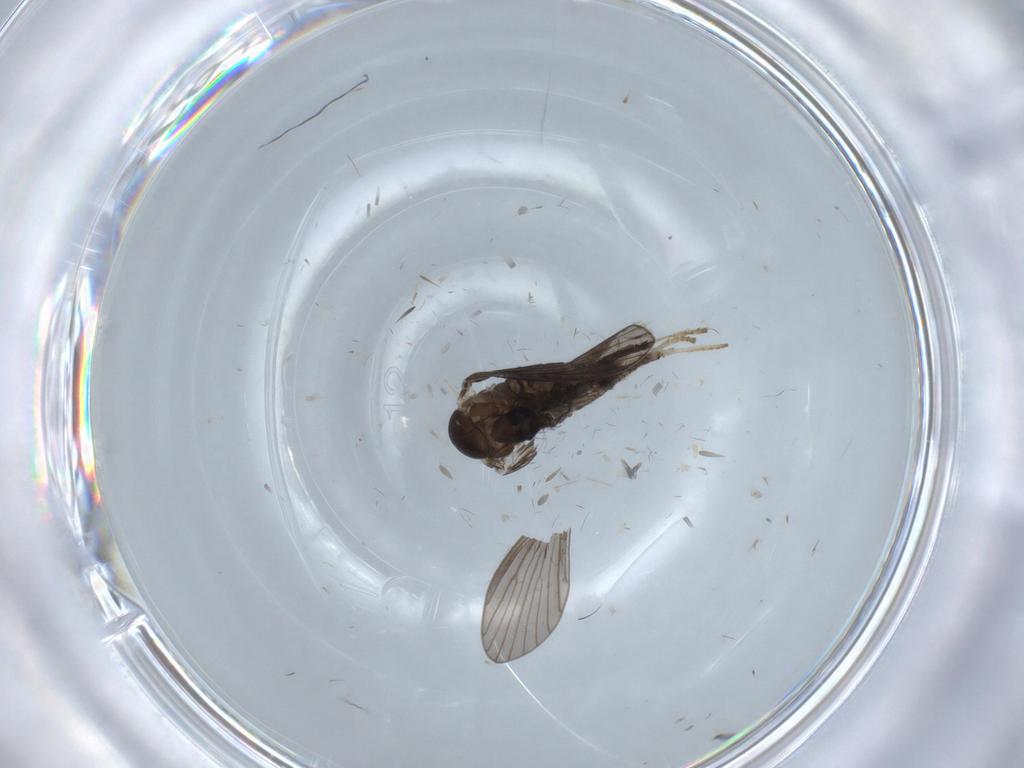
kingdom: Animalia
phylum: Arthropoda
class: Insecta
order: Diptera
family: Psychodidae
